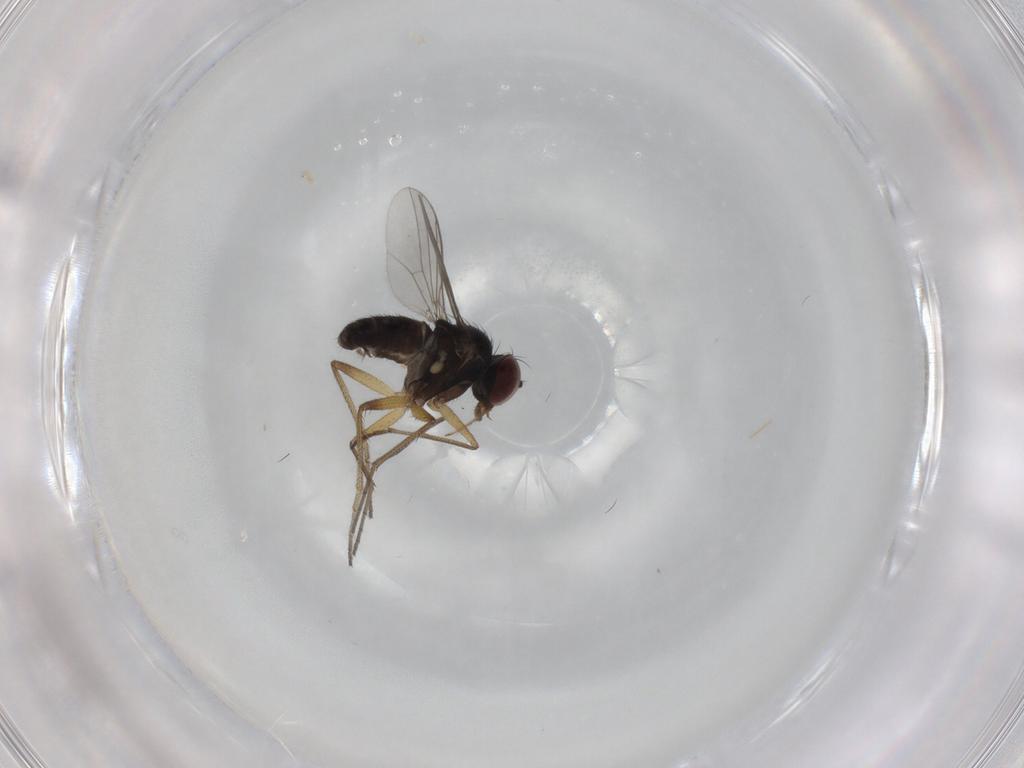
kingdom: Animalia
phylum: Arthropoda
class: Insecta
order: Diptera
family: Dolichopodidae
